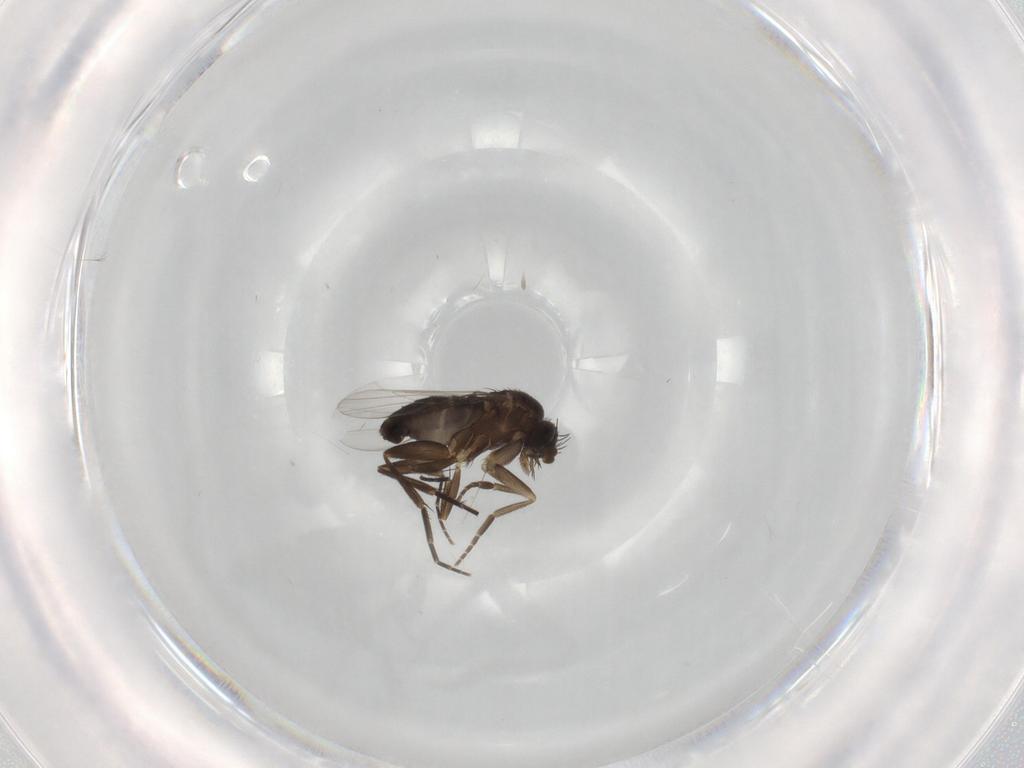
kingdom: Animalia
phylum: Arthropoda
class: Insecta
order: Diptera
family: Phoridae
